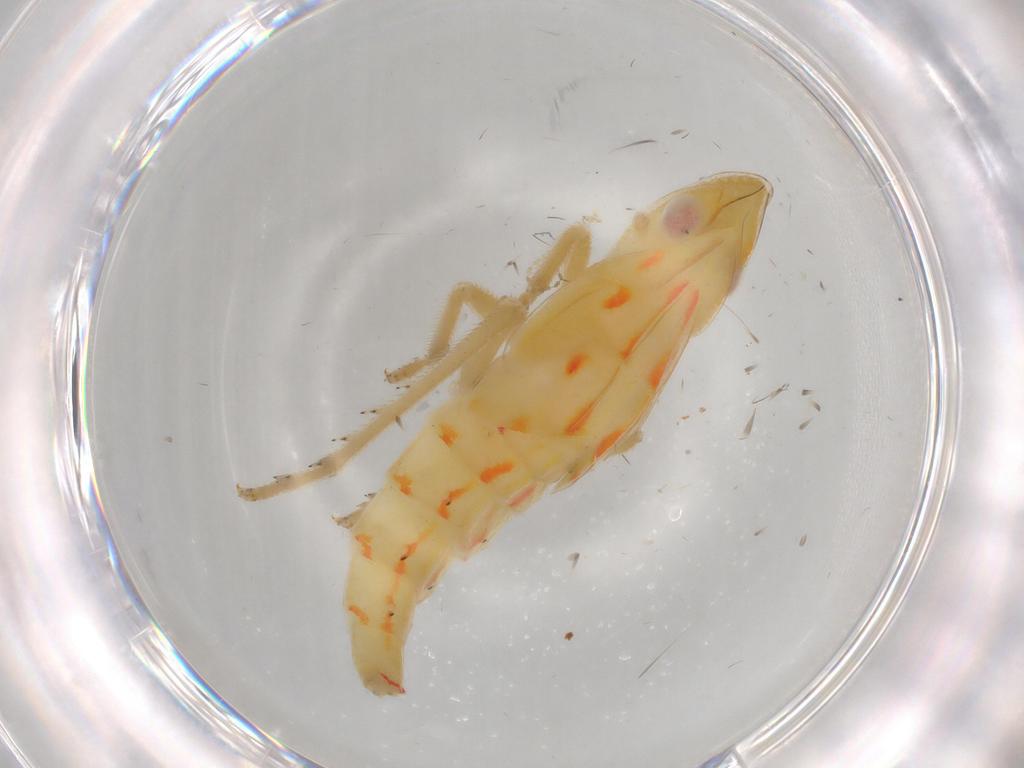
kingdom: Animalia
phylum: Arthropoda
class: Insecta
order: Hemiptera
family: Tropiduchidae
